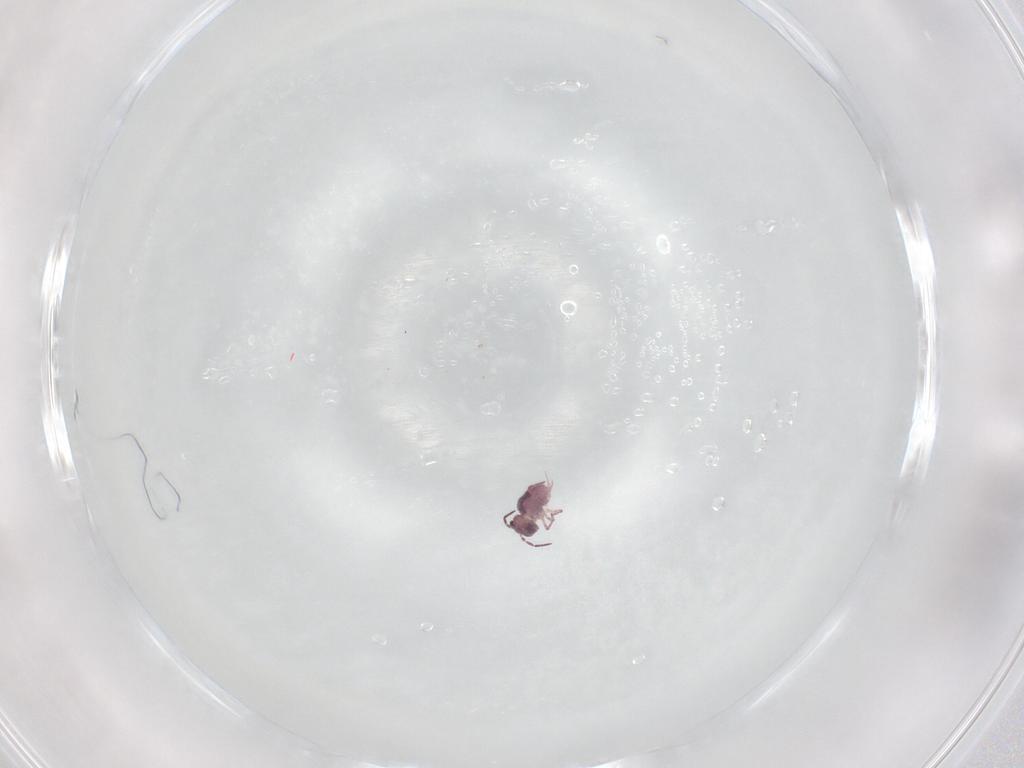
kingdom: Animalia
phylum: Arthropoda
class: Collembola
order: Symphypleona
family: Sminthurididae
